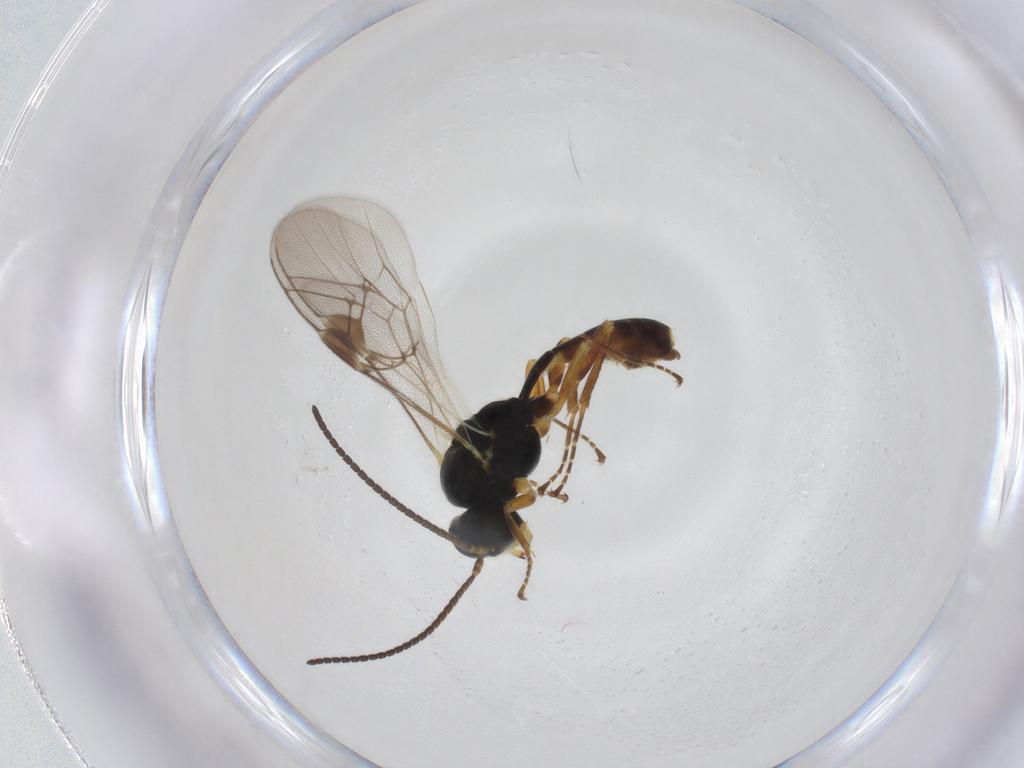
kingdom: Animalia
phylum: Arthropoda
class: Insecta
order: Hymenoptera
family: Ichneumonidae
